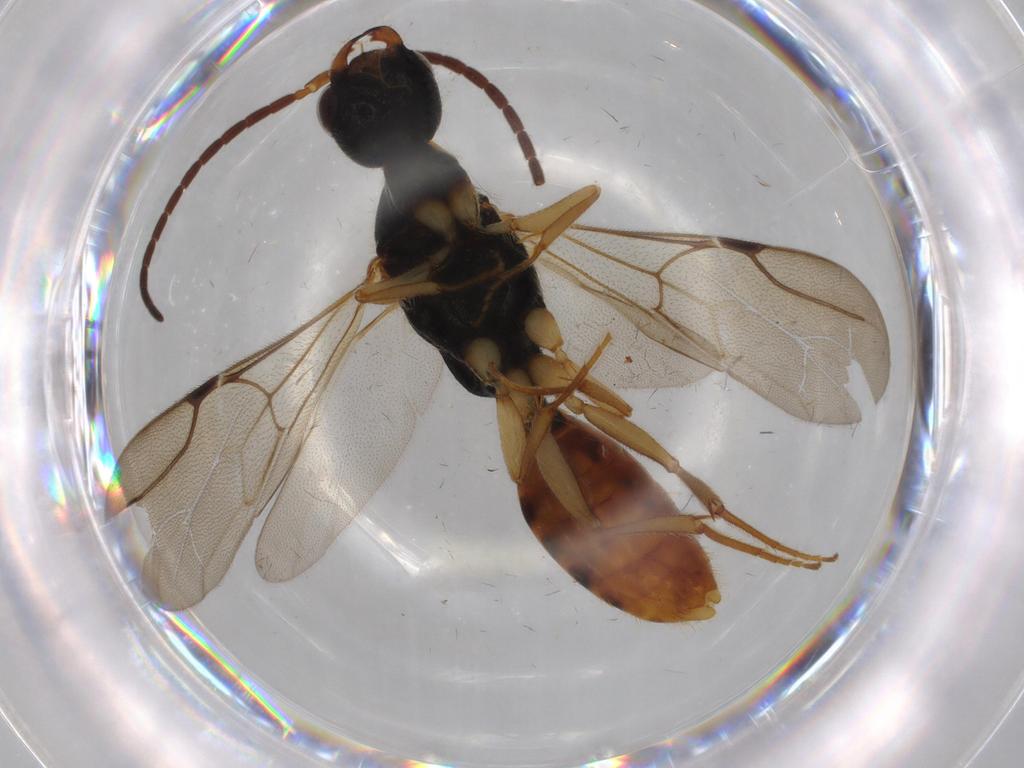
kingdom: Animalia
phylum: Arthropoda
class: Insecta
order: Hymenoptera
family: Bethylidae
